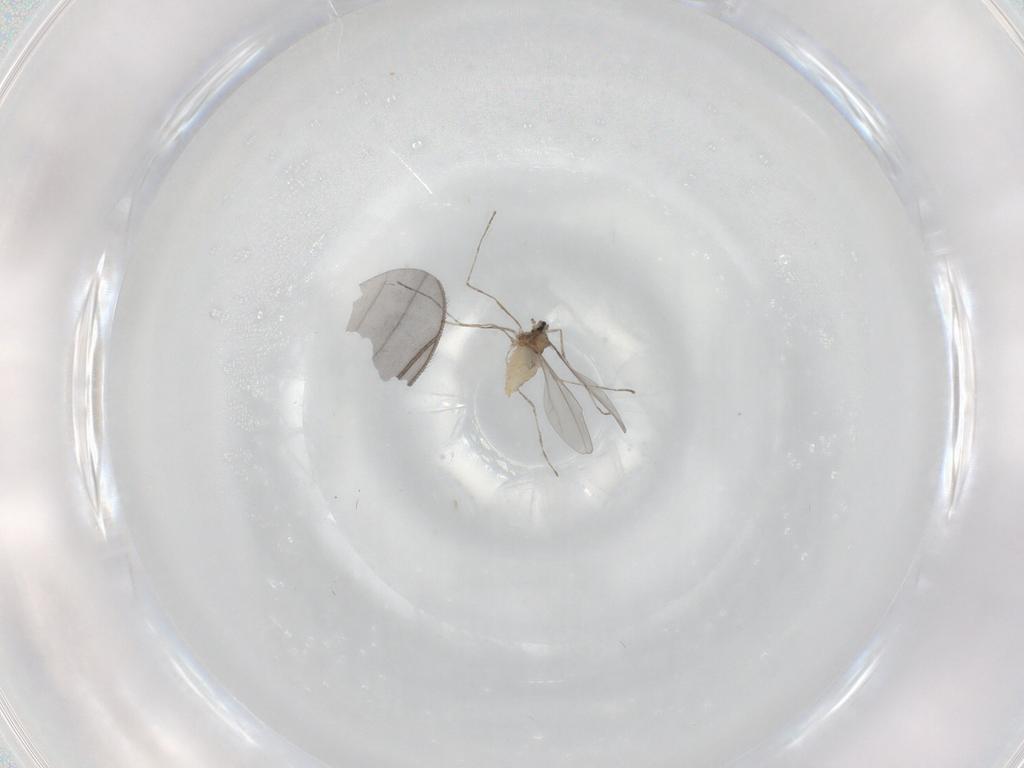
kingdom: Animalia
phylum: Arthropoda
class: Insecta
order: Diptera
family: Cecidomyiidae
